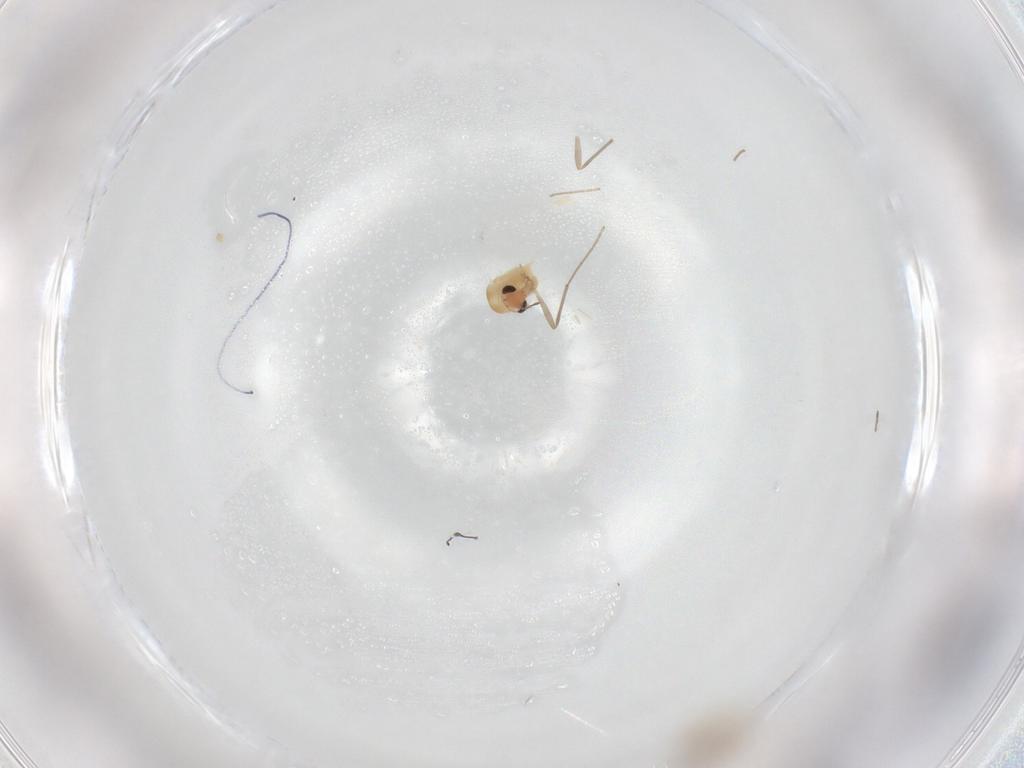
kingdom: Animalia
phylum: Arthropoda
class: Insecta
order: Diptera
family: Chironomidae
